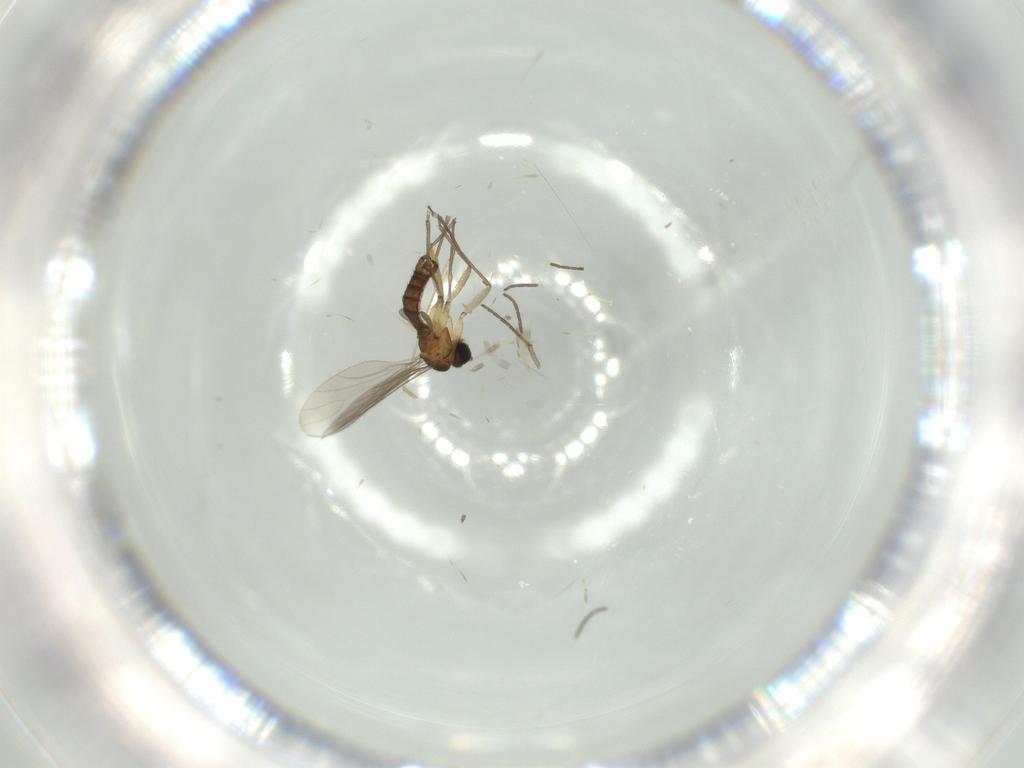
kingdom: Animalia
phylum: Arthropoda
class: Insecta
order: Diptera
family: Sciaridae
